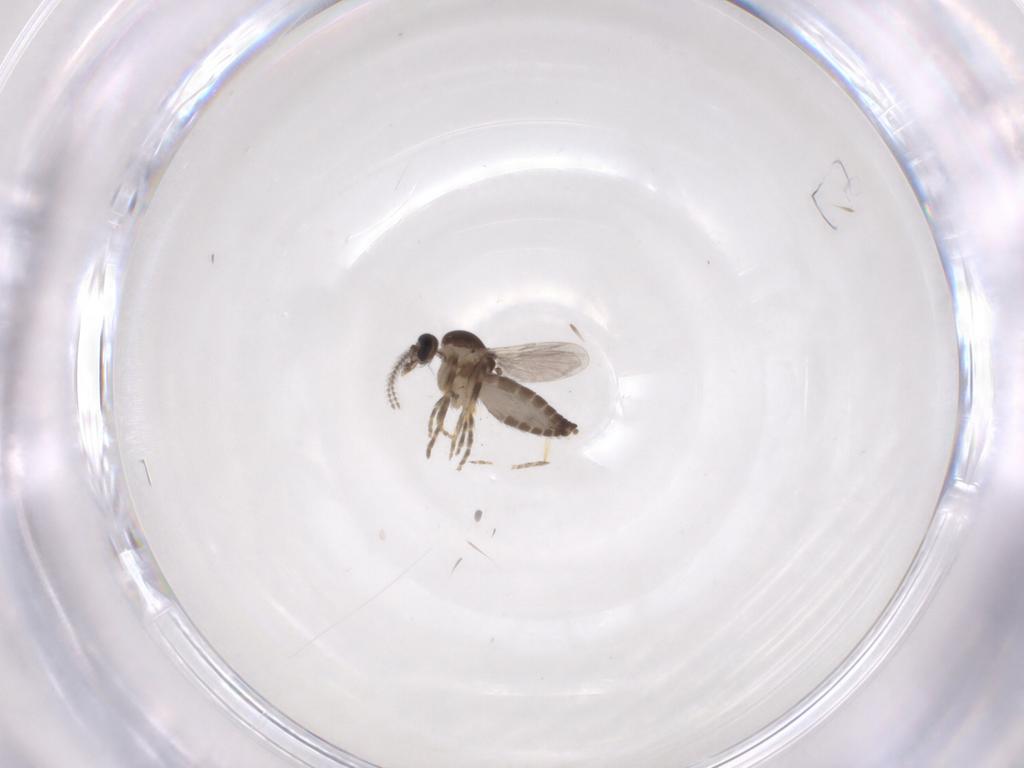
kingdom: Animalia
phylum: Arthropoda
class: Insecta
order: Diptera
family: Ceratopogonidae
